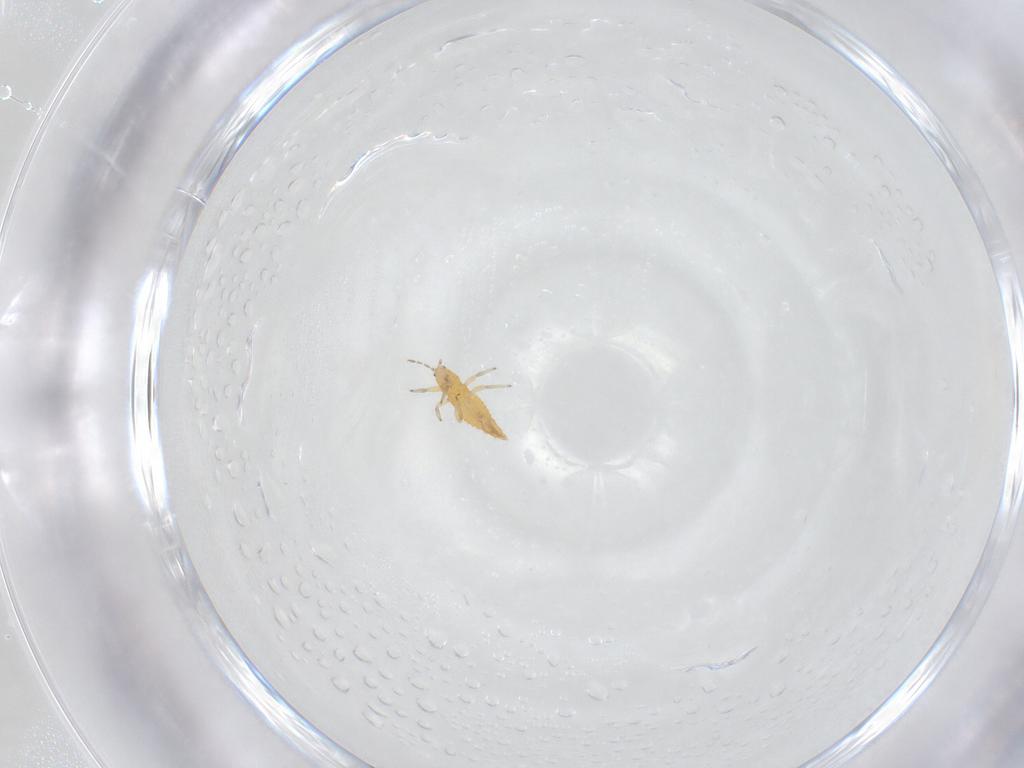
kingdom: Animalia
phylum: Arthropoda
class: Insecta
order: Thysanoptera
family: Aeolothripidae
